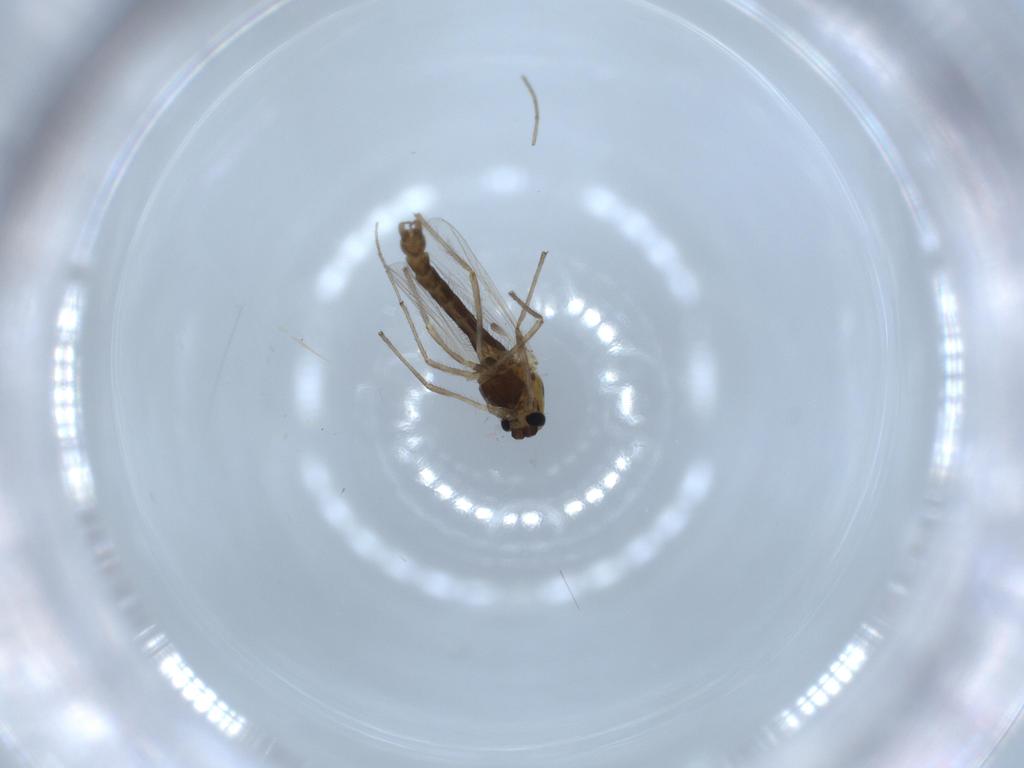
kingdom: Animalia
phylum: Arthropoda
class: Insecta
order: Diptera
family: Chironomidae
